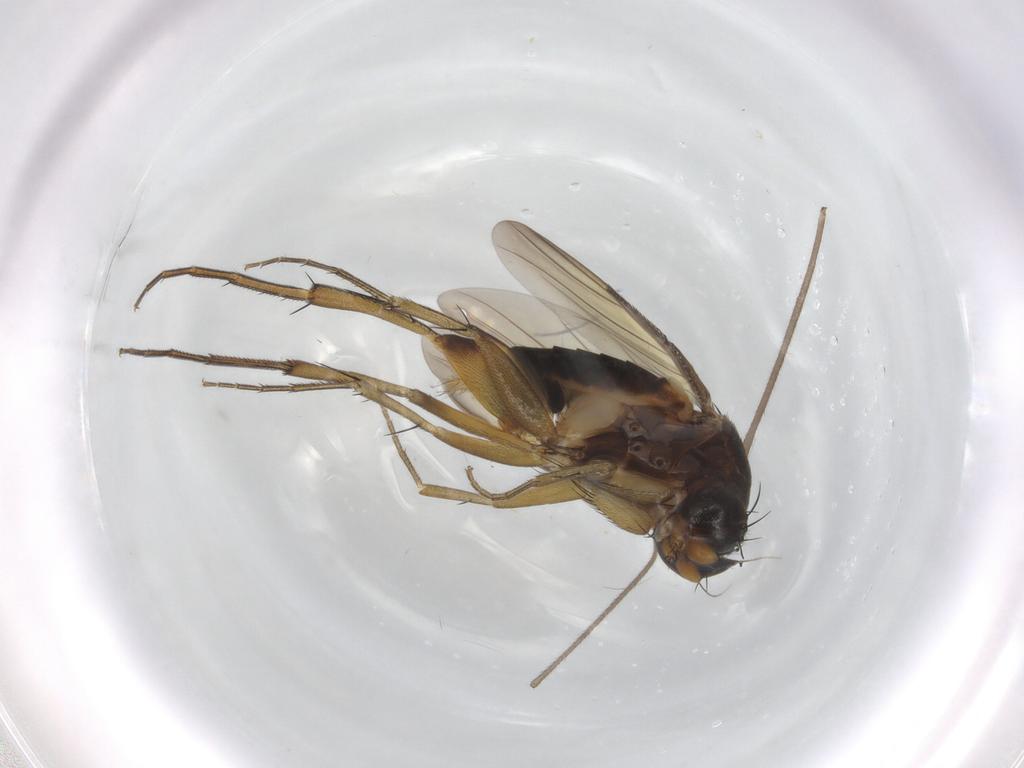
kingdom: Animalia
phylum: Arthropoda
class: Insecta
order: Diptera
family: Phoridae
